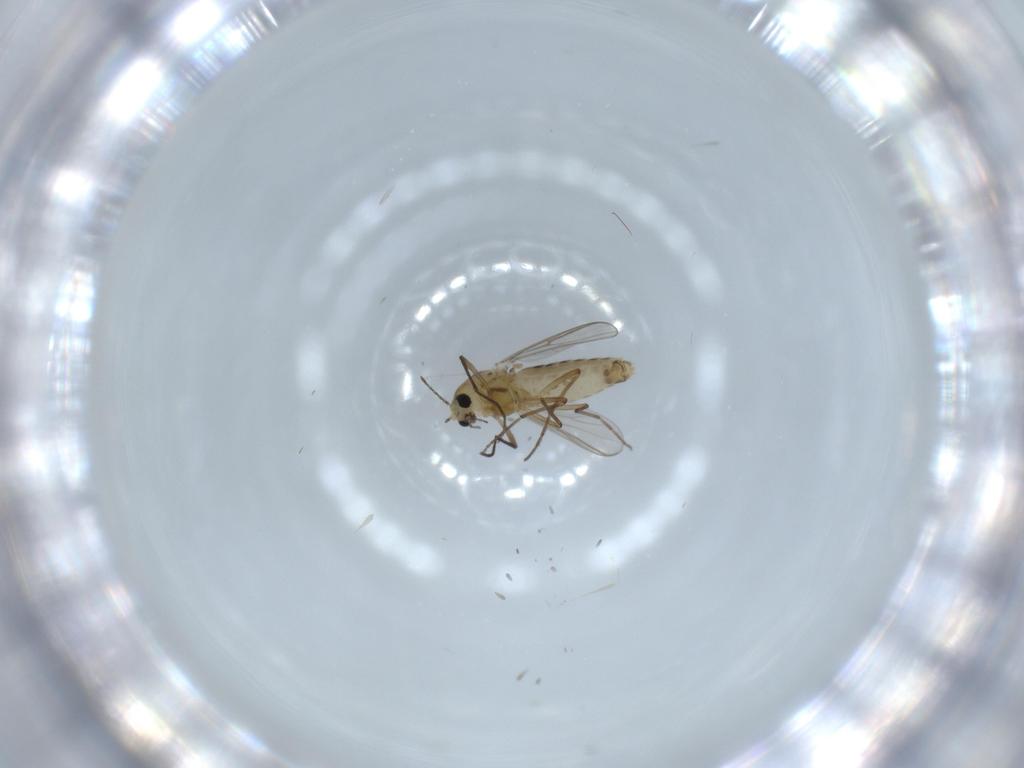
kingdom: Animalia
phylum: Arthropoda
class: Insecta
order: Diptera
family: Chironomidae
